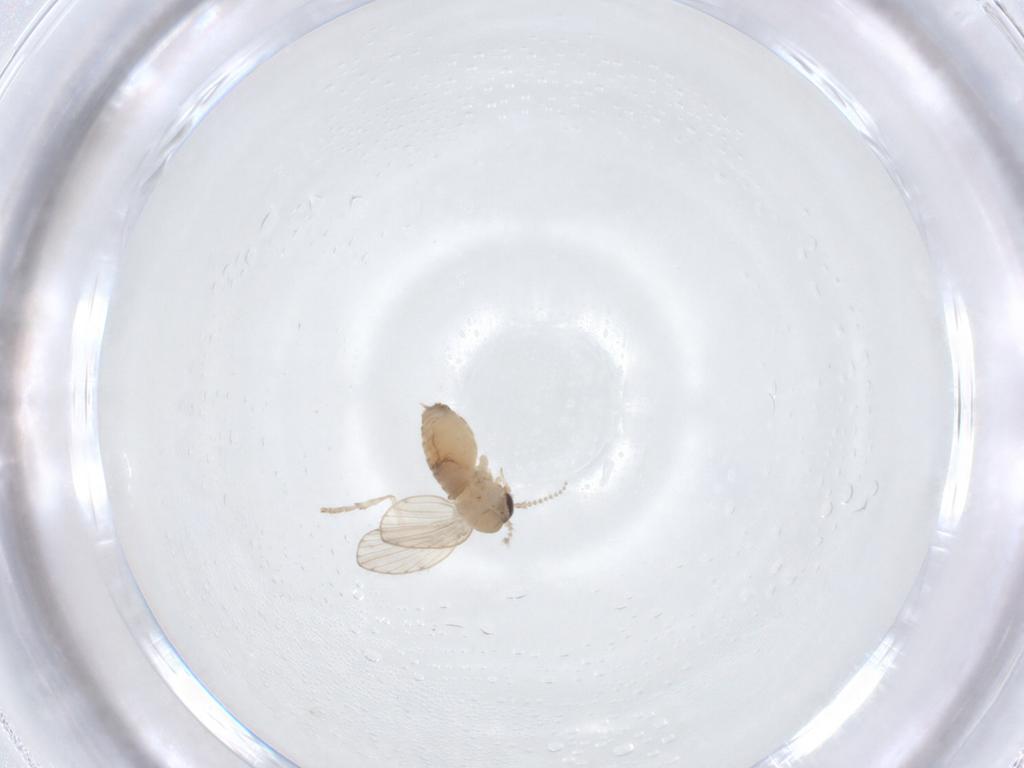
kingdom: Animalia
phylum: Arthropoda
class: Insecta
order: Diptera
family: Psychodidae
